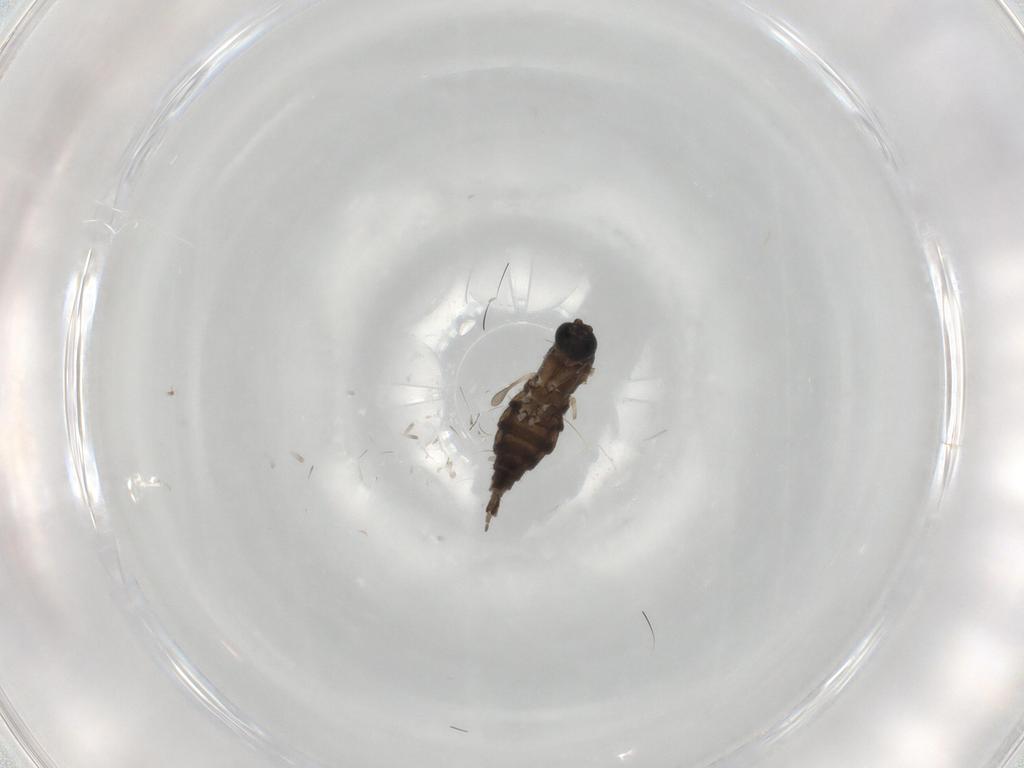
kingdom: Animalia
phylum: Arthropoda
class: Insecta
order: Diptera
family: Sciaridae
